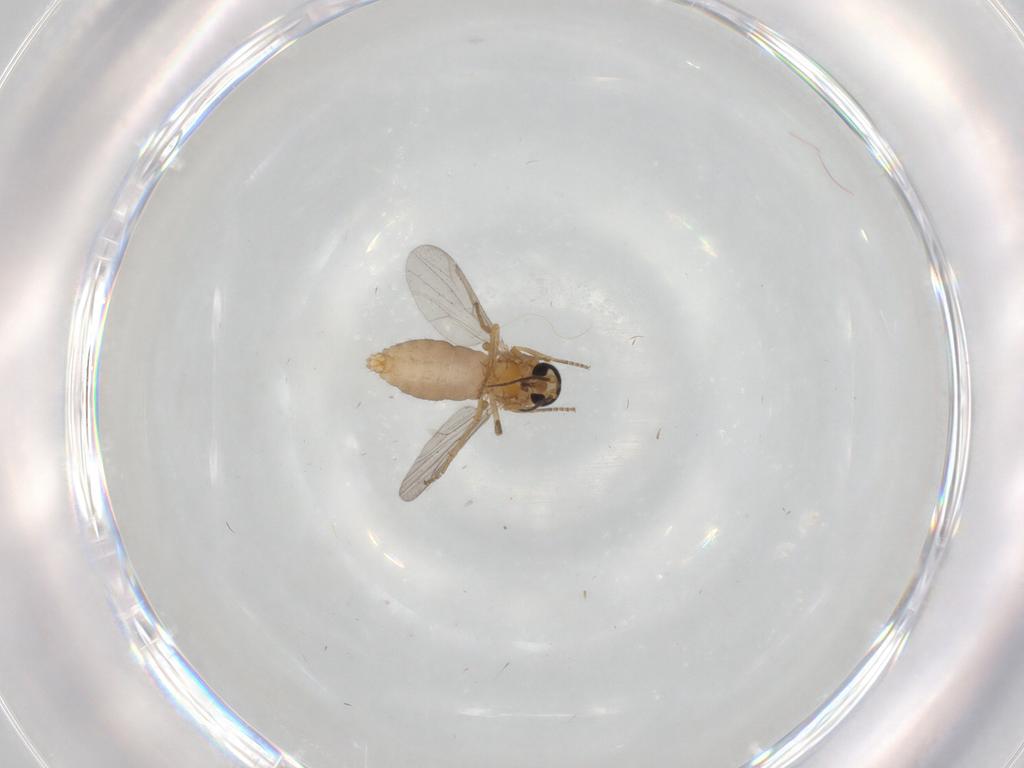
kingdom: Animalia
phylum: Arthropoda
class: Insecta
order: Diptera
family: Ceratopogonidae
